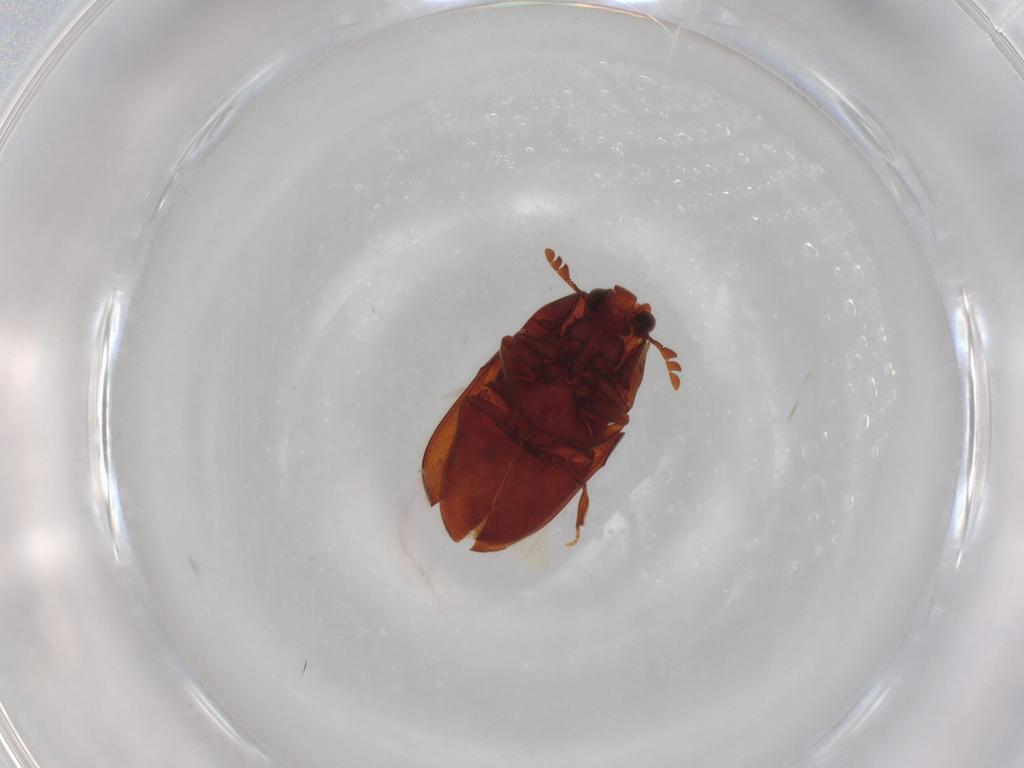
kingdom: Animalia
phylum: Arthropoda
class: Insecta
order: Coleoptera
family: Throscidae
